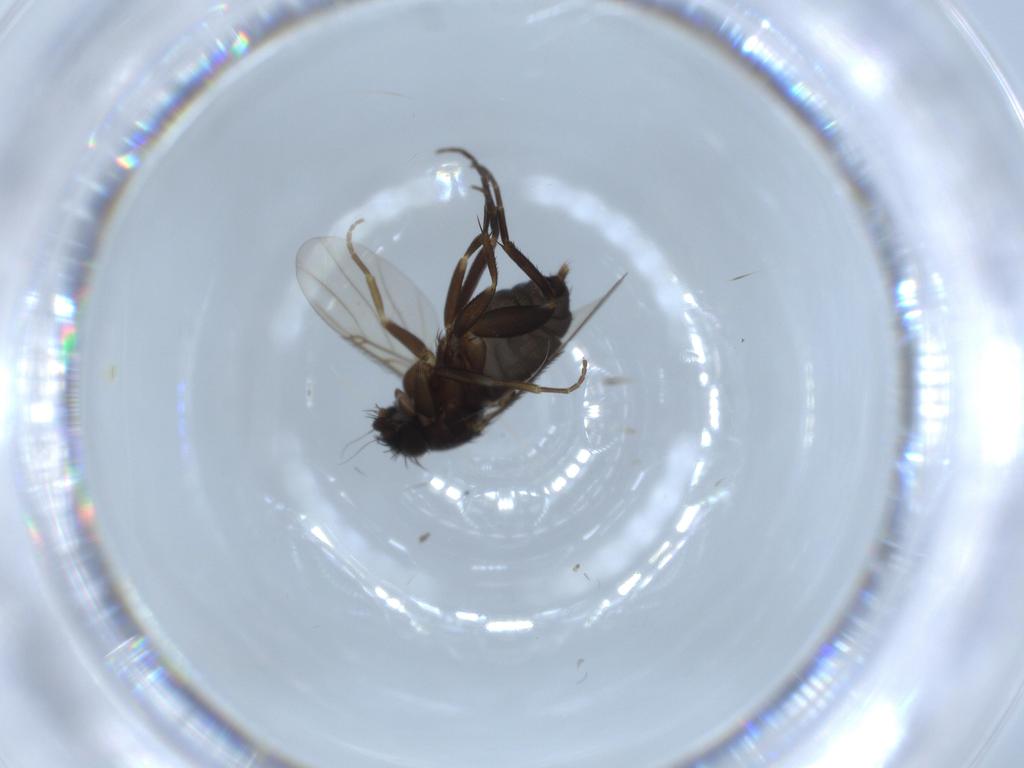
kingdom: Animalia
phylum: Arthropoda
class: Insecta
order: Diptera
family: Phoridae
